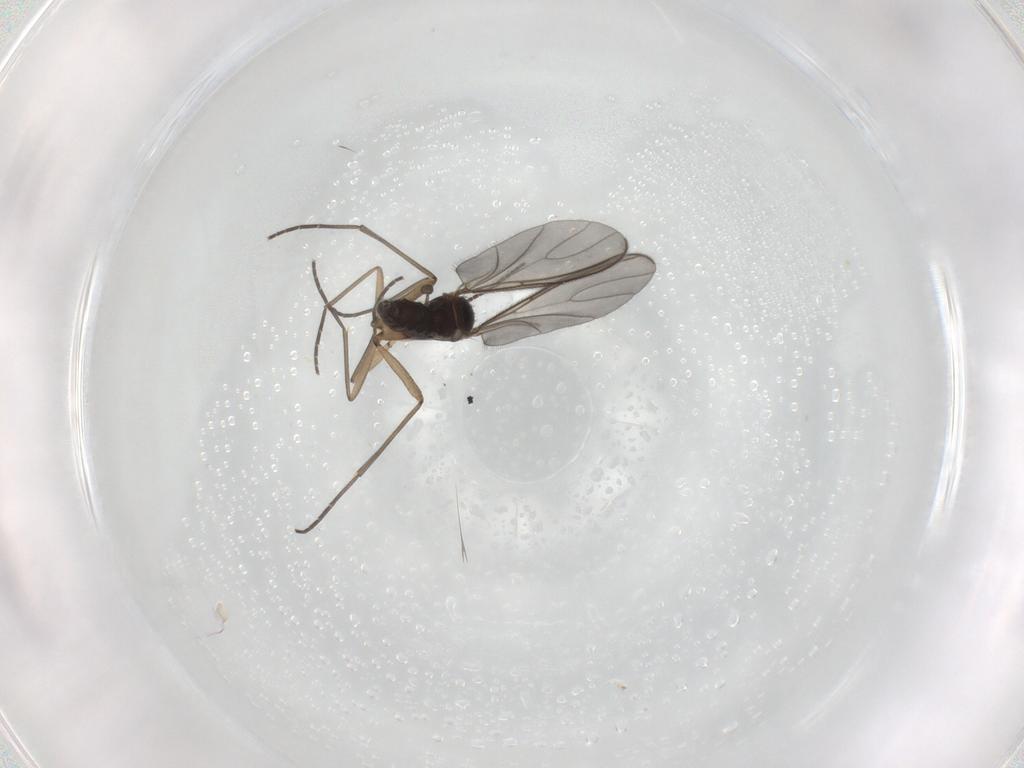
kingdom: Animalia
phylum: Arthropoda
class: Insecta
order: Diptera
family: Sciaridae
